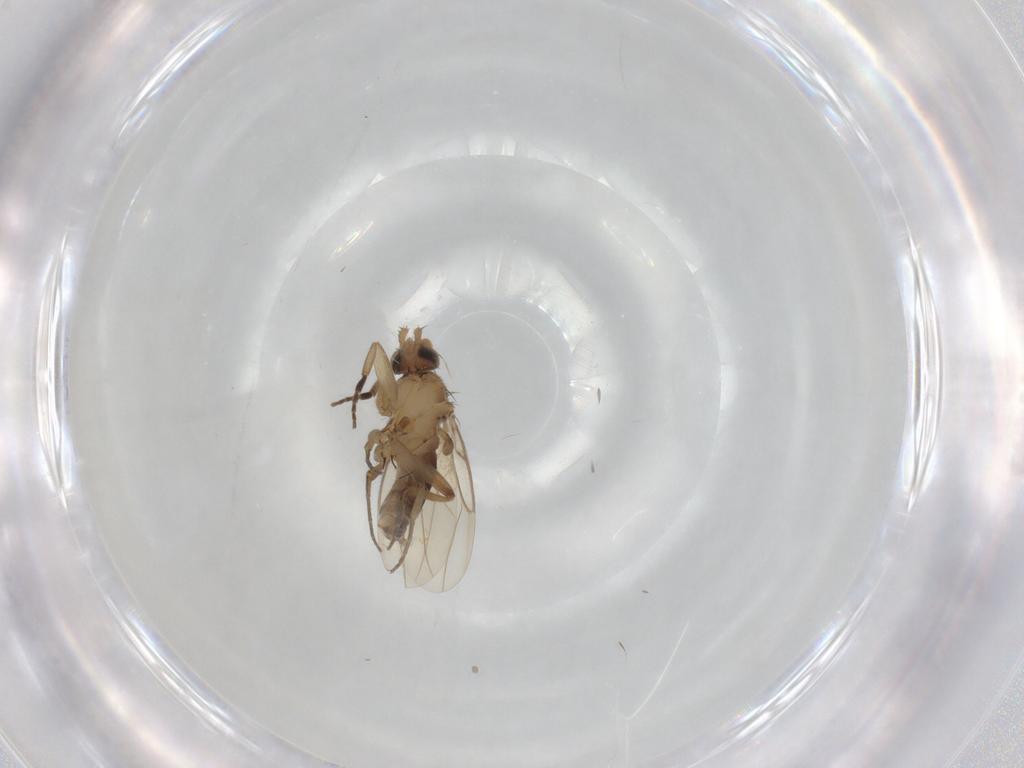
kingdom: Animalia
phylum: Arthropoda
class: Insecta
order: Diptera
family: Phoridae
